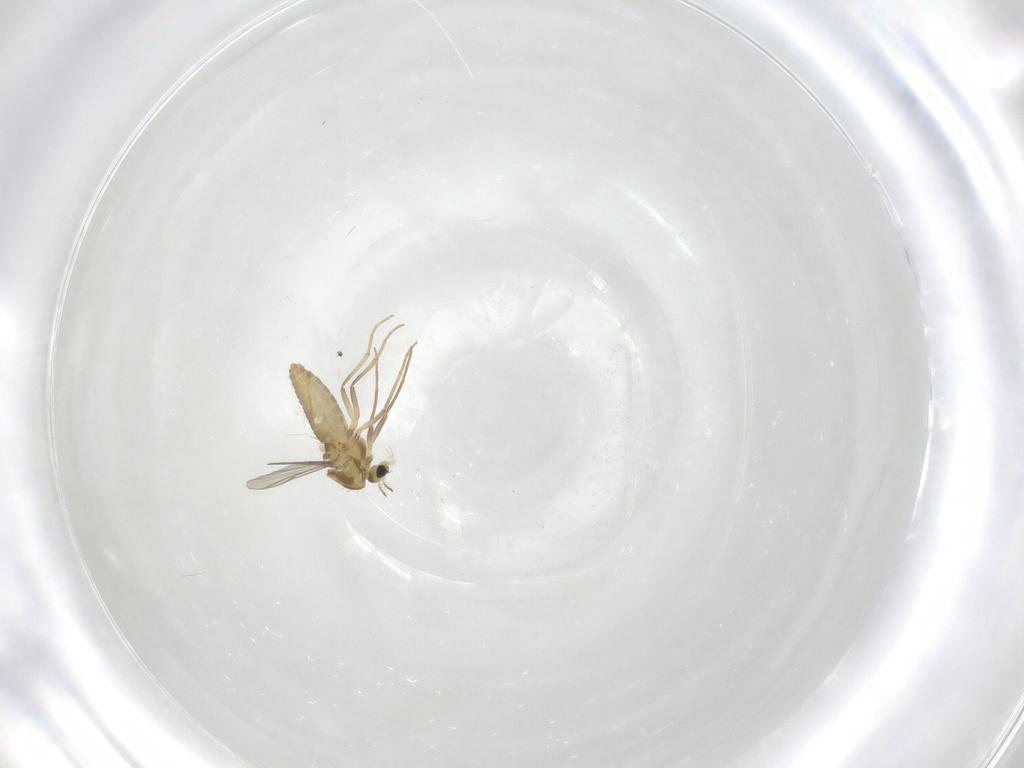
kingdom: Animalia
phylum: Arthropoda
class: Insecta
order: Diptera
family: Chironomidae
